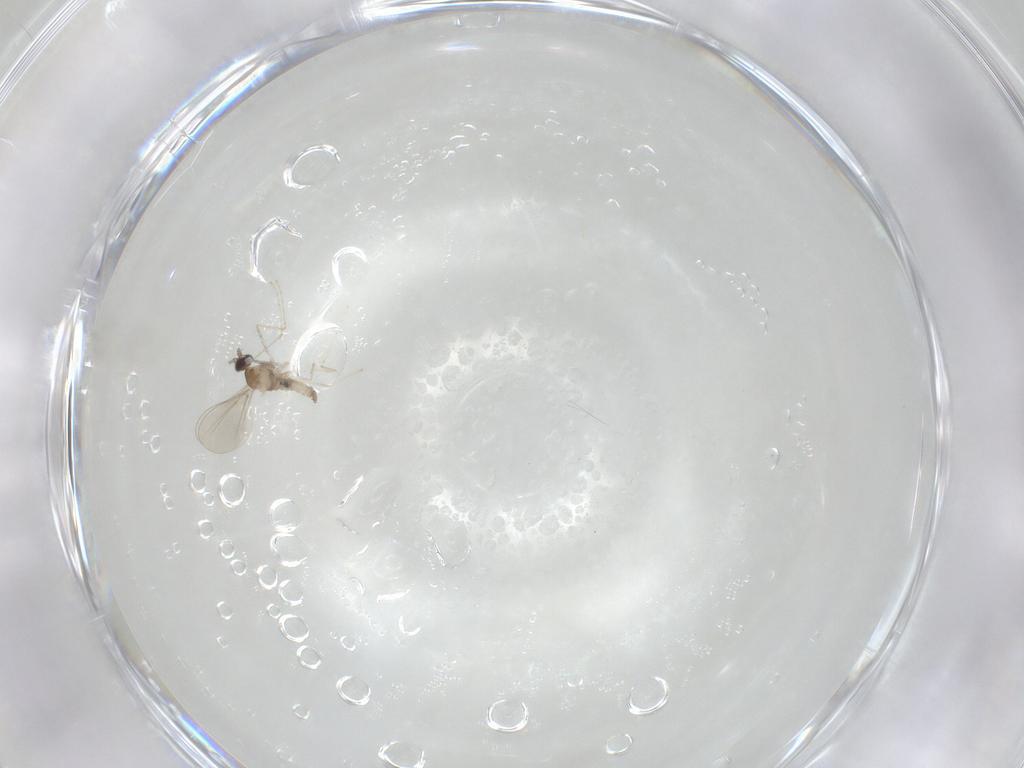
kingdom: Animalia
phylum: Arthropoda
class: Insecta
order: Diptera
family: Cecidomyiidae
